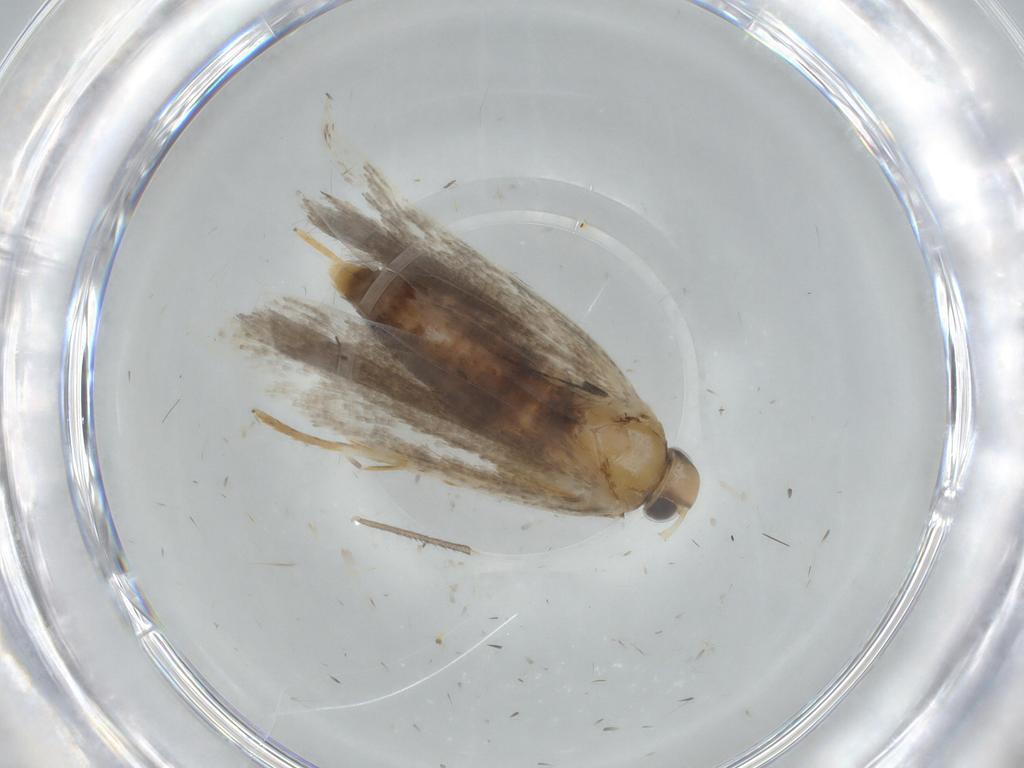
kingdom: Animalia
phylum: Arthropoda
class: Insecta
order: Lepidoptera
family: Gelechiidae
